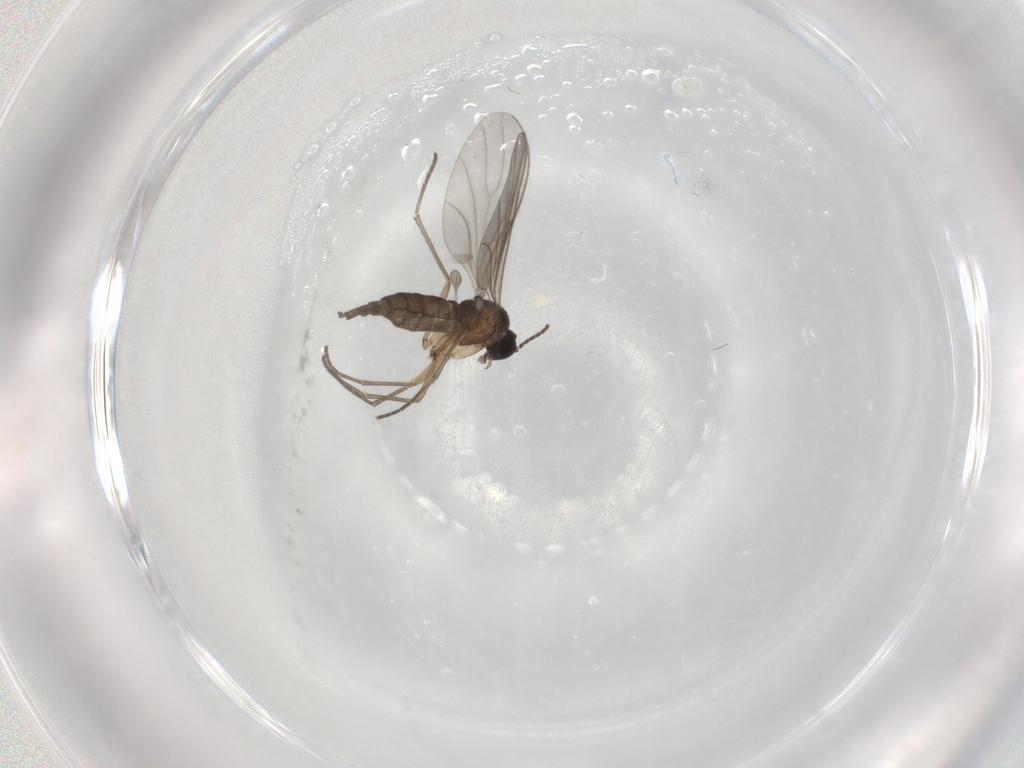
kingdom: Animalia
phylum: Arthropoda
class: Insecta
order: Diptera
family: Sciaridae
